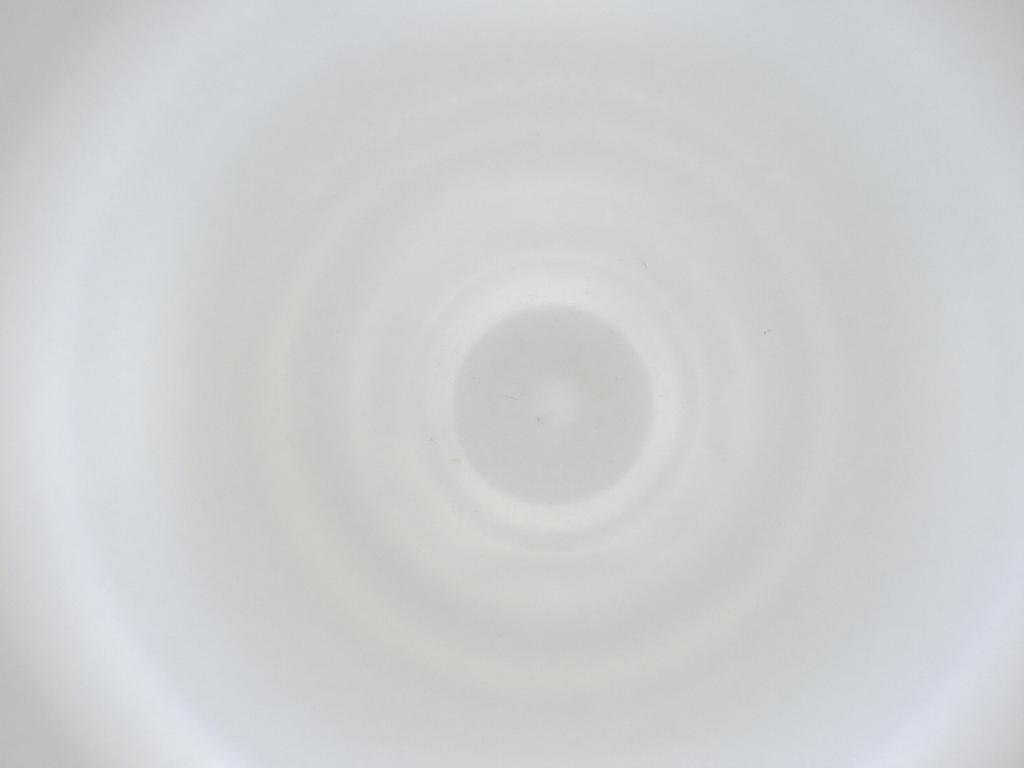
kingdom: Animalia
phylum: Arthropoda
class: Insecta
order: Diptera
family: Cecidomyiidae
